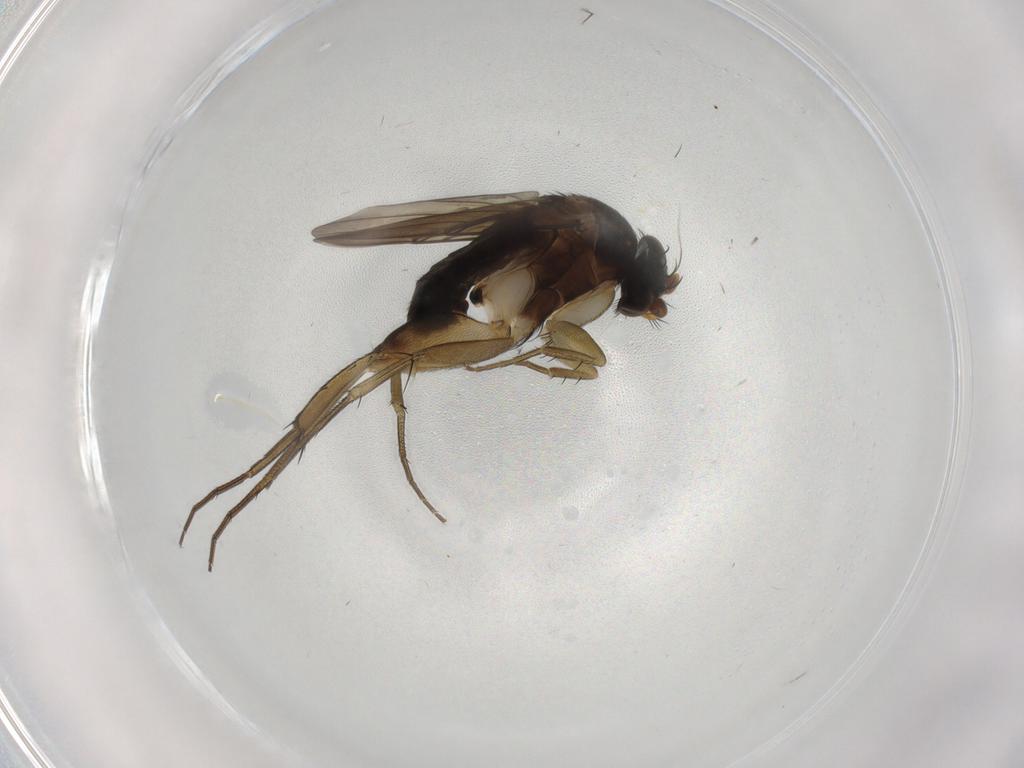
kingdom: Animalia
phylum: Arthropoda
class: Insecta
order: Diptera
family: Phoridae
